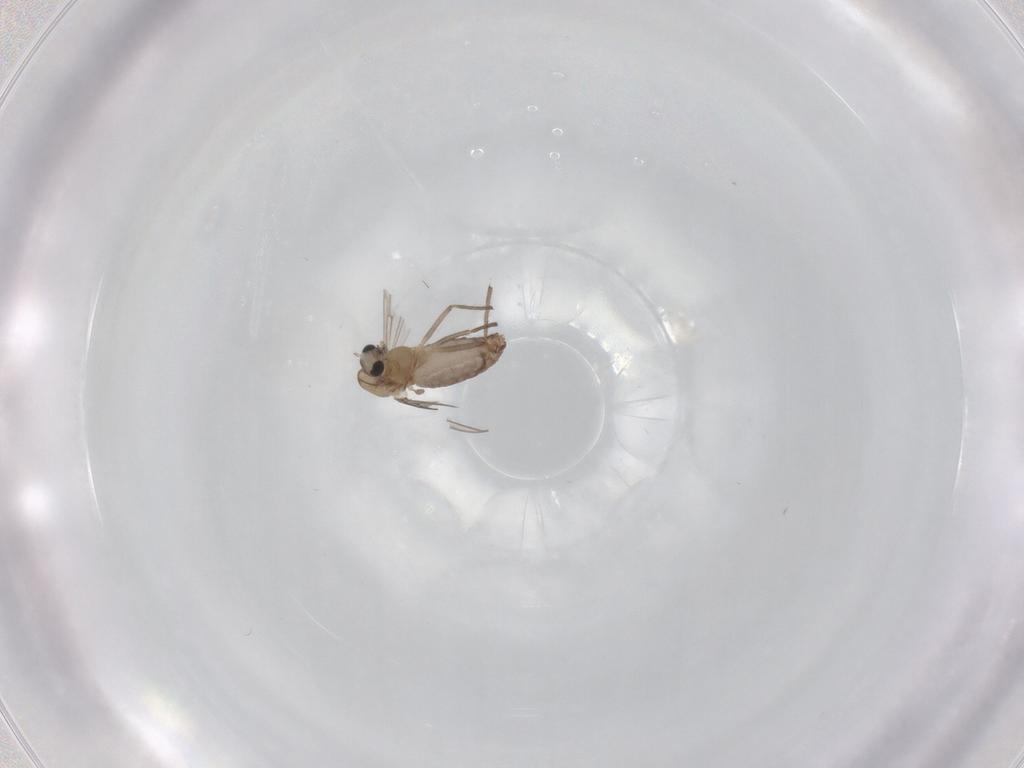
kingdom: Animalia
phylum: Arthropoda
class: Insecta
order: Diptera
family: Chironomidae
